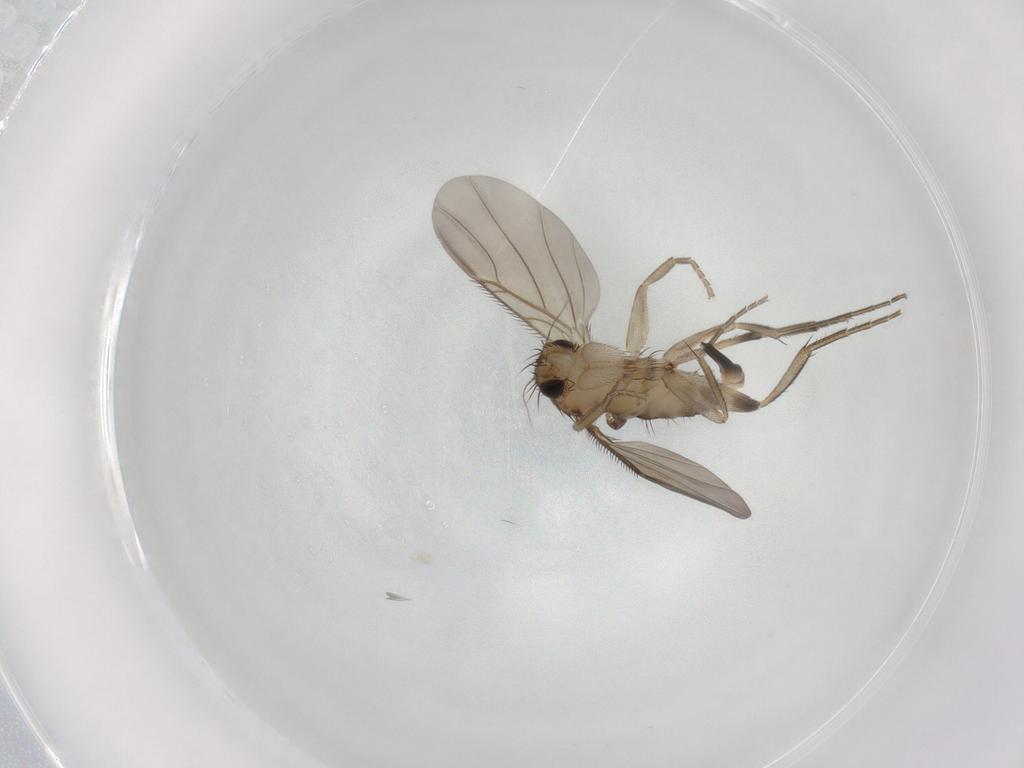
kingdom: Animalia
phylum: Arthropoda
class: Insecta
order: Diptera
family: Phoridae
